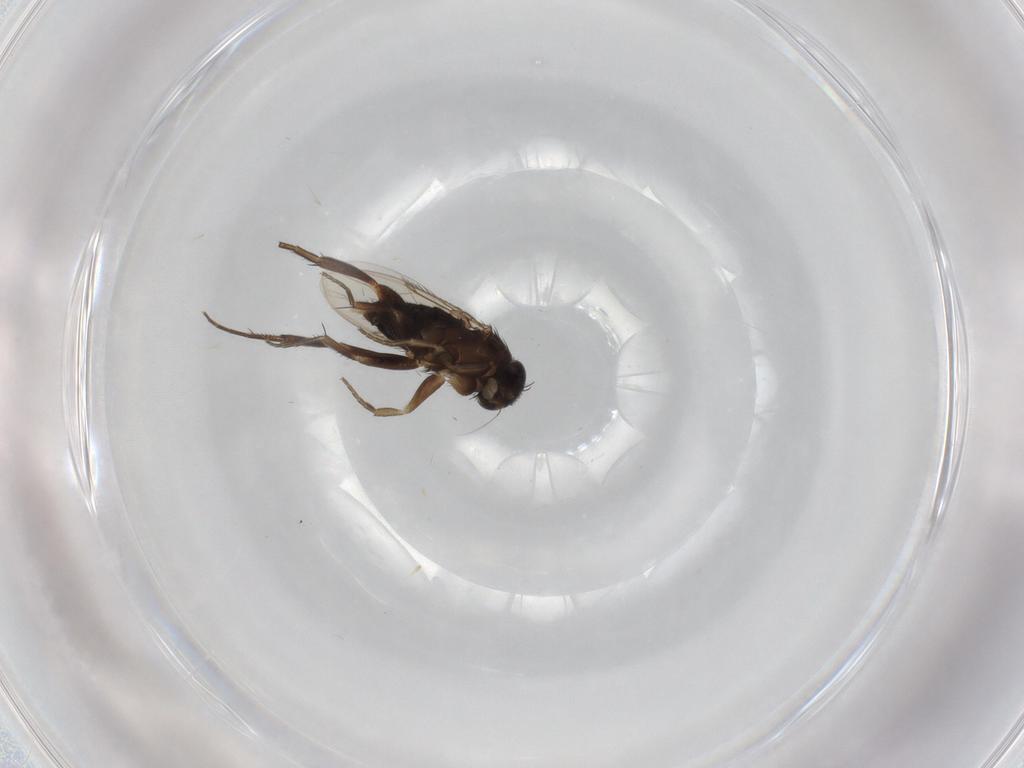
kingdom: Animalia
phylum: Arthropoda
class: Insecta
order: Diptera
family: Phoridae
